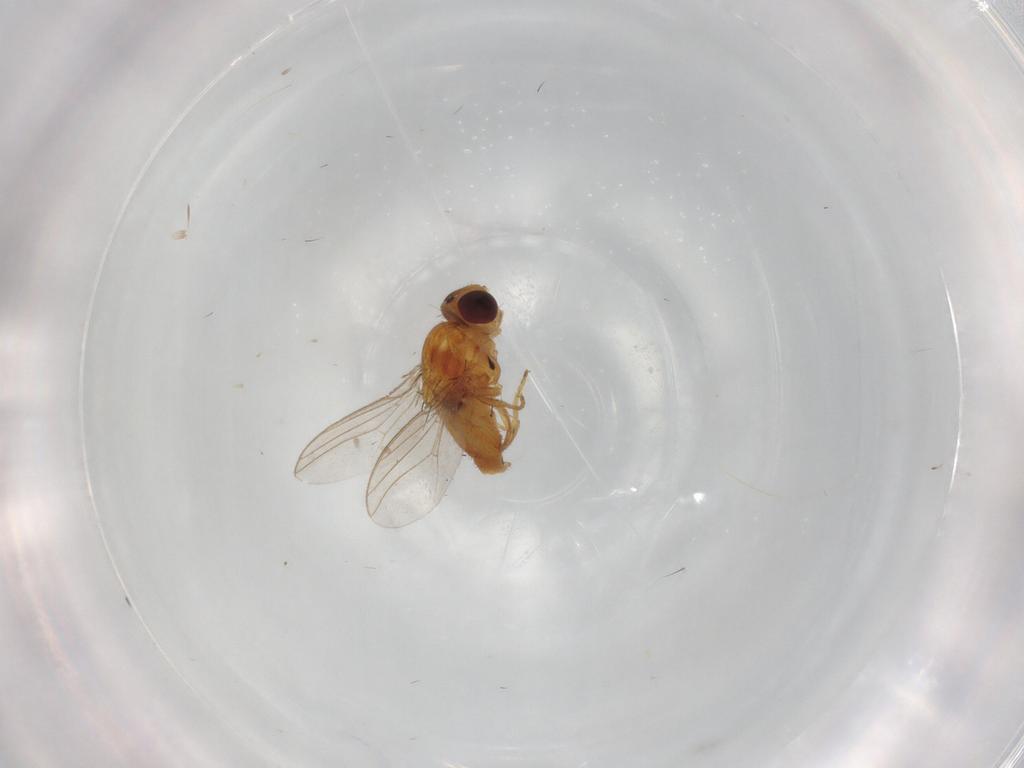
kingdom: Animalia
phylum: Arthropoda
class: Insecta
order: Diptera
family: Chloropidae
